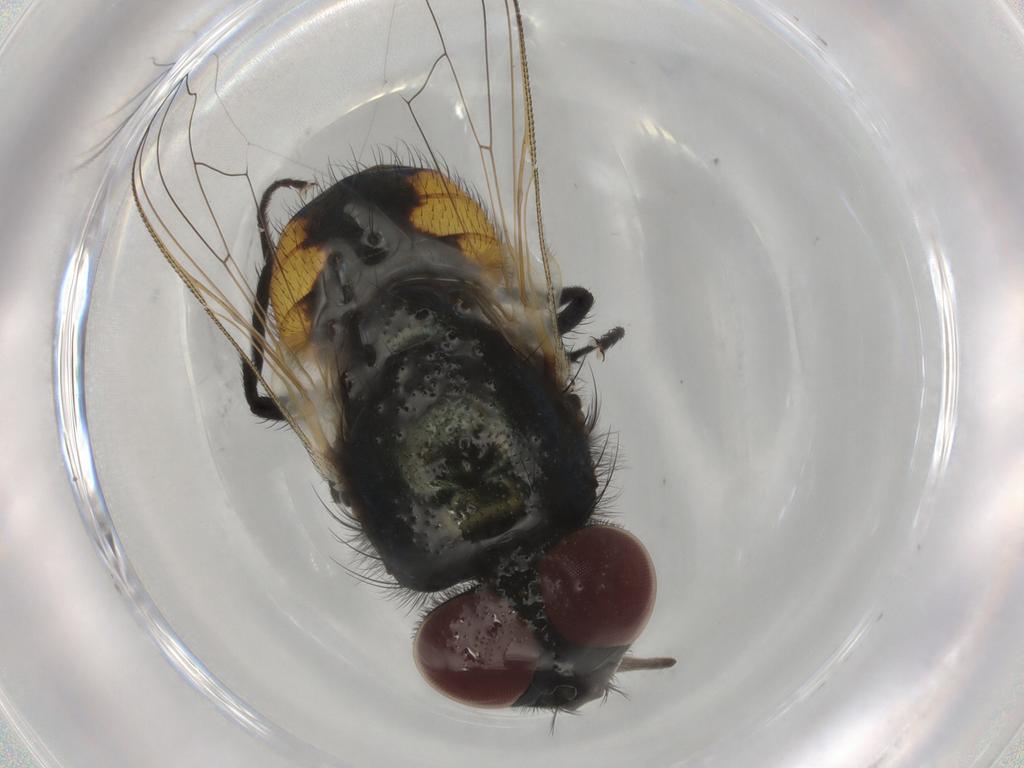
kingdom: Animalia
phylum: Arthropoda
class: Insecta
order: Diptera
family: Muscidae
